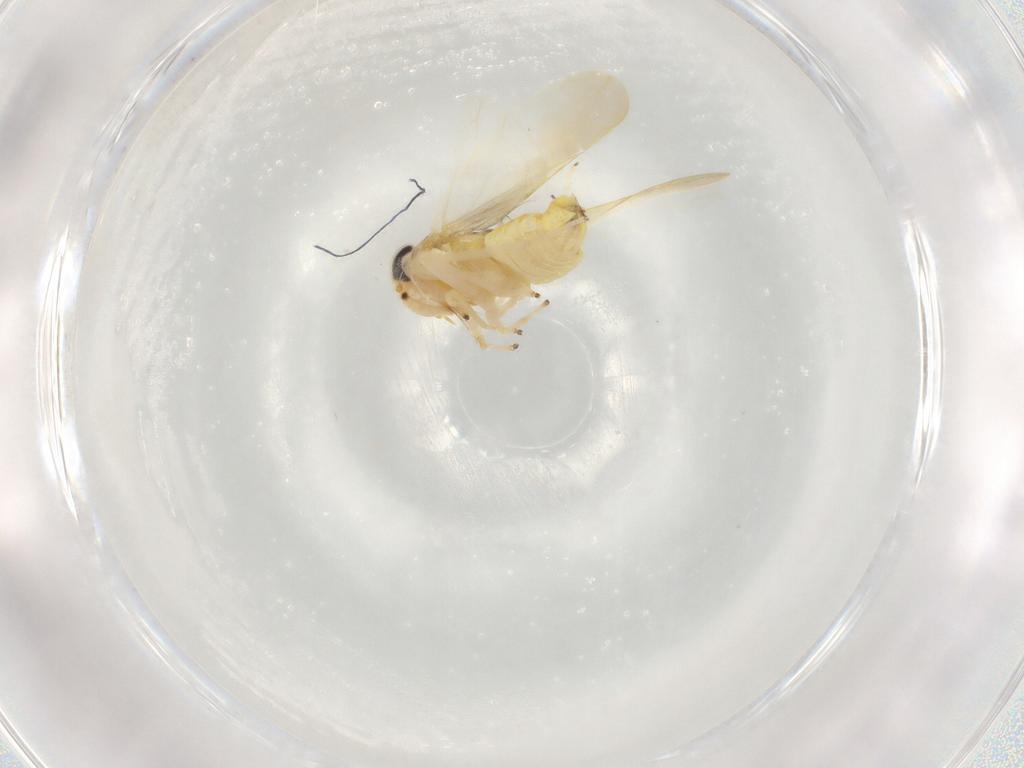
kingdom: Animalia
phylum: Arthropoda
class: Insecta
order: Hemiptera
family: Cicadellidae
